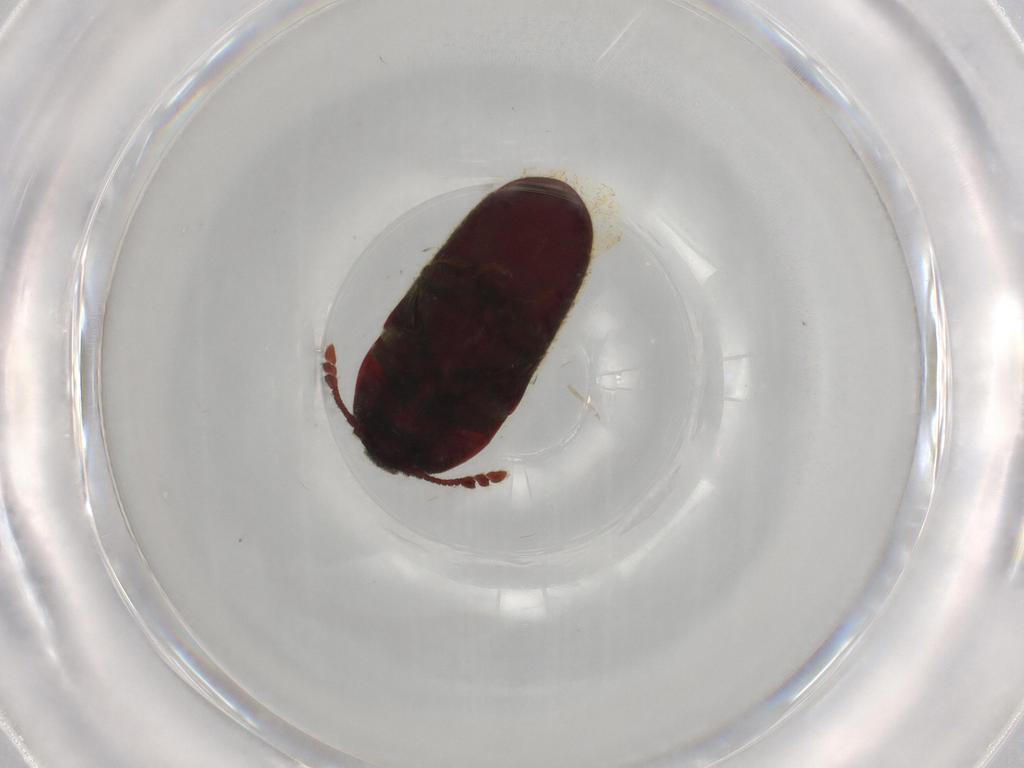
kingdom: Animalia
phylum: Arthropoda
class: Insecta
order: Coleoptera
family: Throscidae
